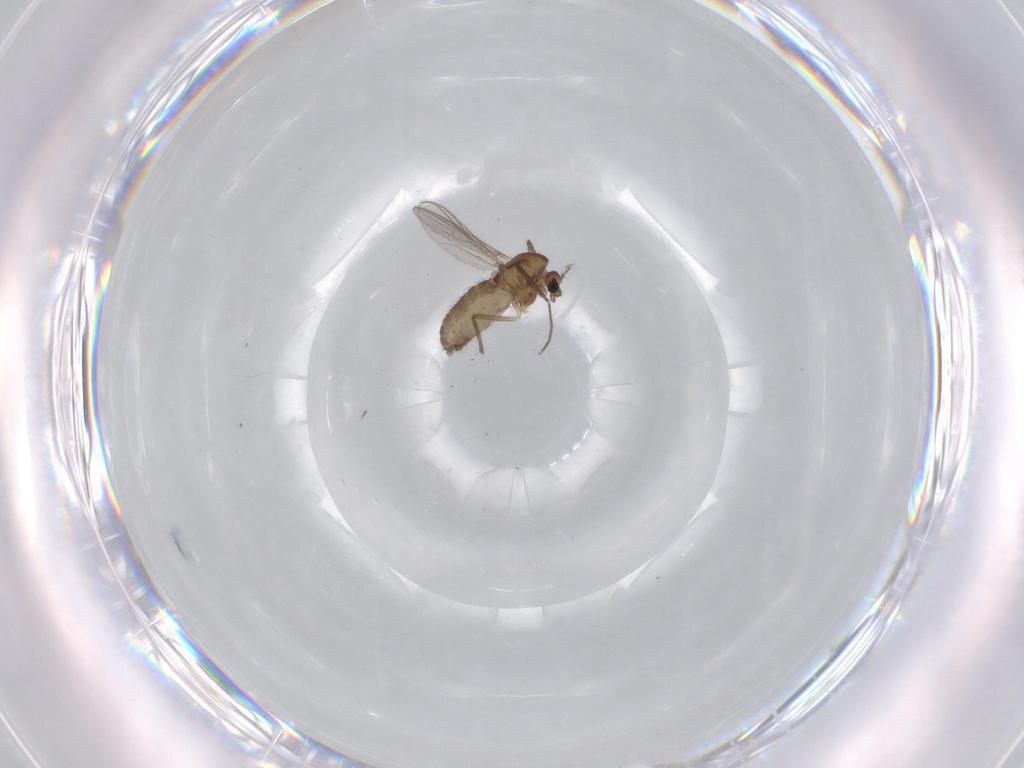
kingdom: Animalia
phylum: Arthropoda
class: Insecta
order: Diptera
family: Chironomidae
